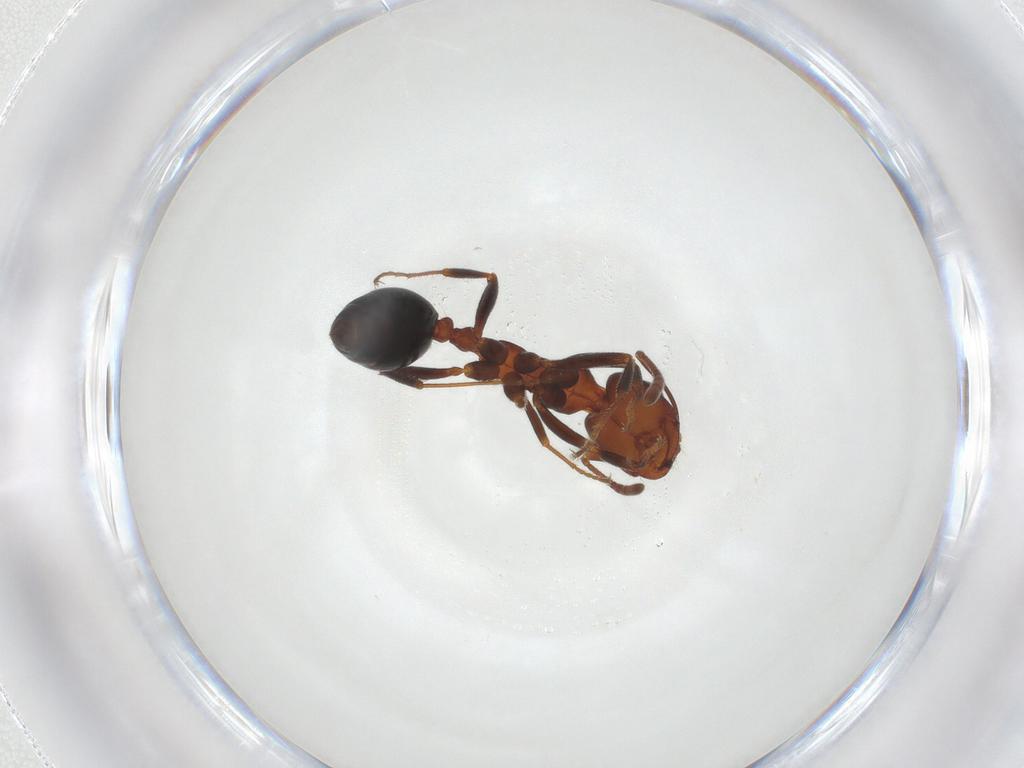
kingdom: Animalia
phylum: Arthropoda
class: Insecta
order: Hymenoptera
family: Formicidae
